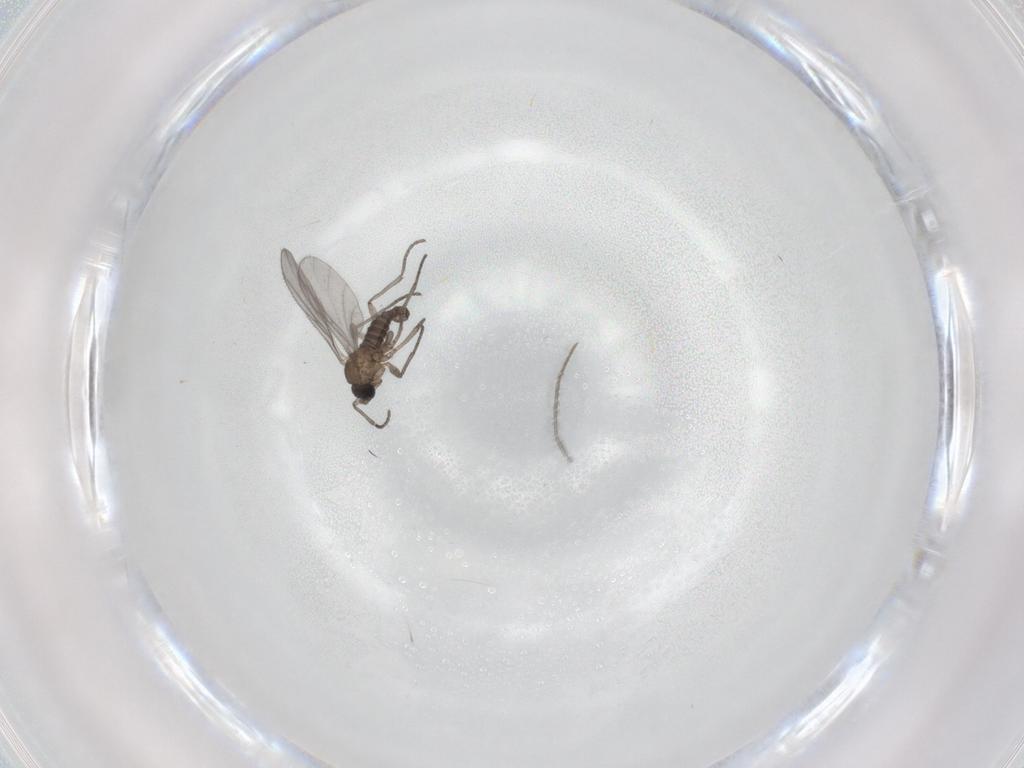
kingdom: Animalia
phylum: Arthropoda
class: Insecta
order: Diptera
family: Sciaridae
